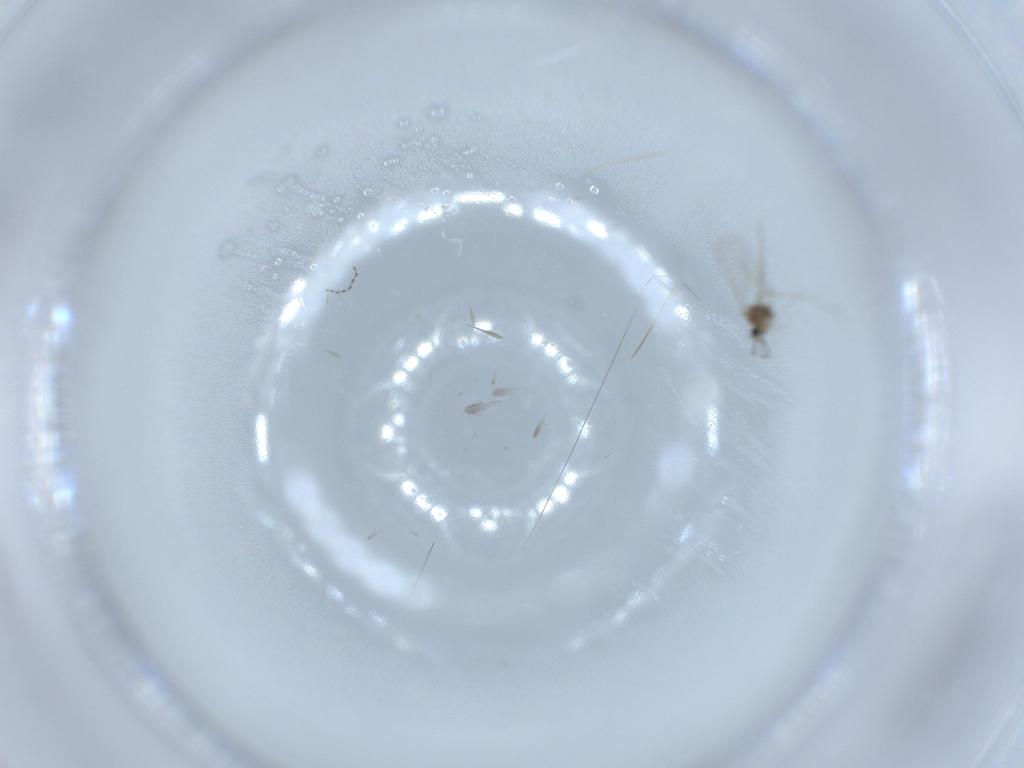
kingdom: Animalia
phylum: Arthropoda
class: Insecta
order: Diptera
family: Cecidomyiidae
